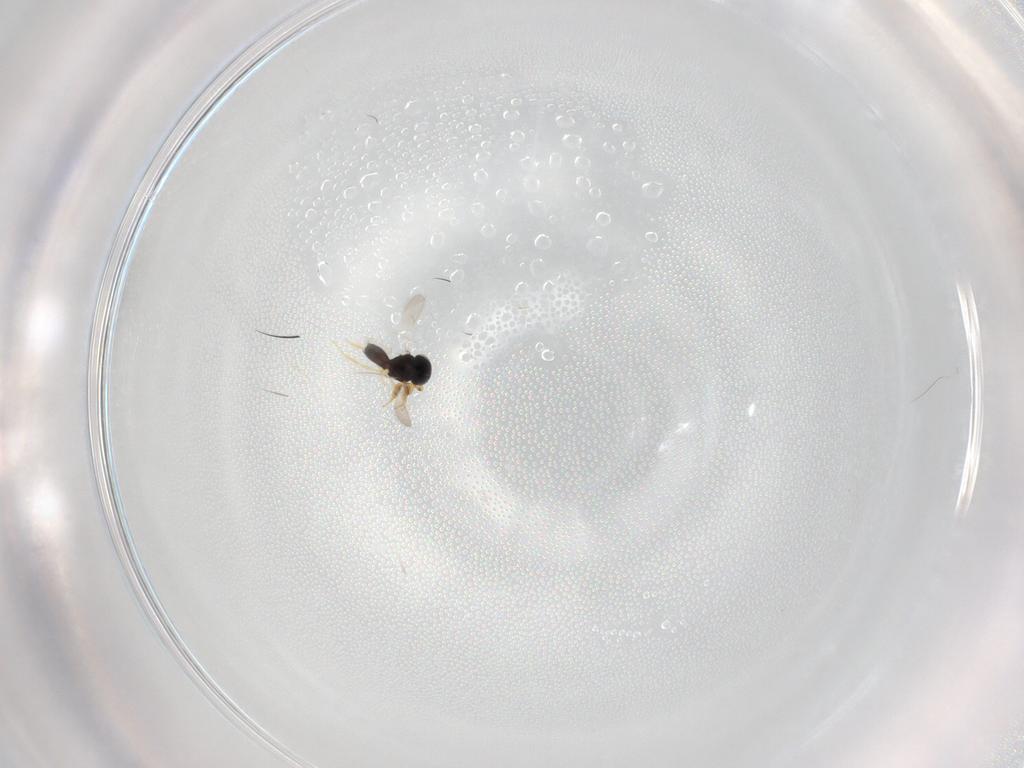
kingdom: Animalia
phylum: Arthropoda
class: Insecta
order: Hymenoptera
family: Scelionidae
